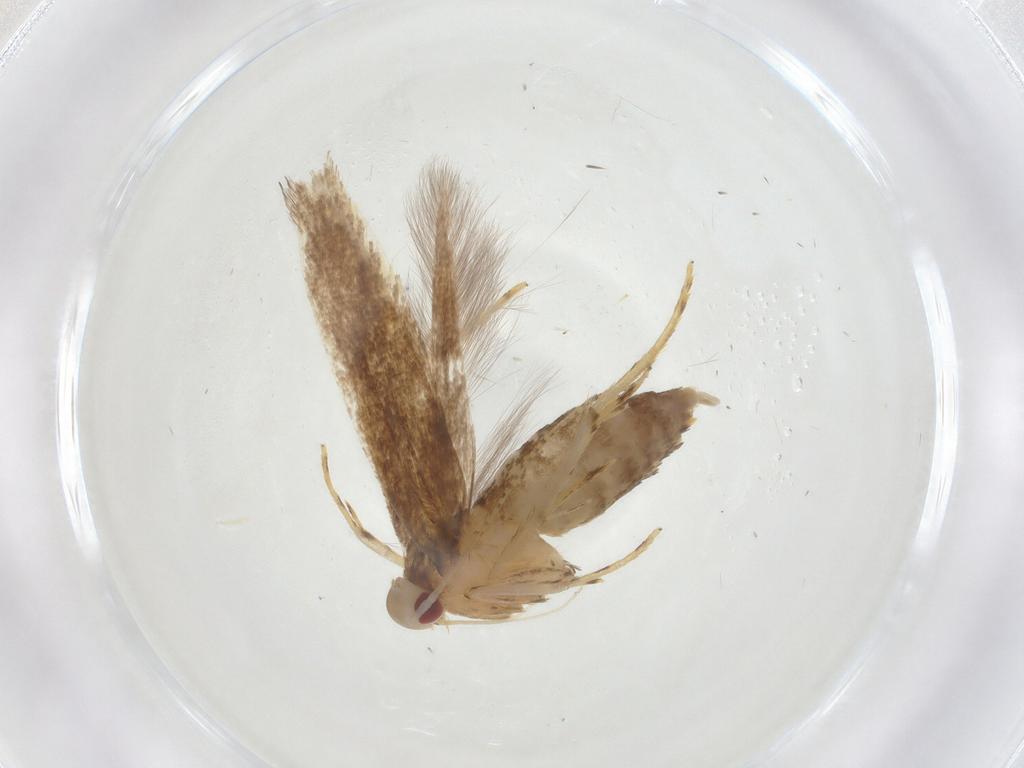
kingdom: Animalia
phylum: Arthropoda
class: Insecta
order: Lepidoptera
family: Cosmopterigidae
